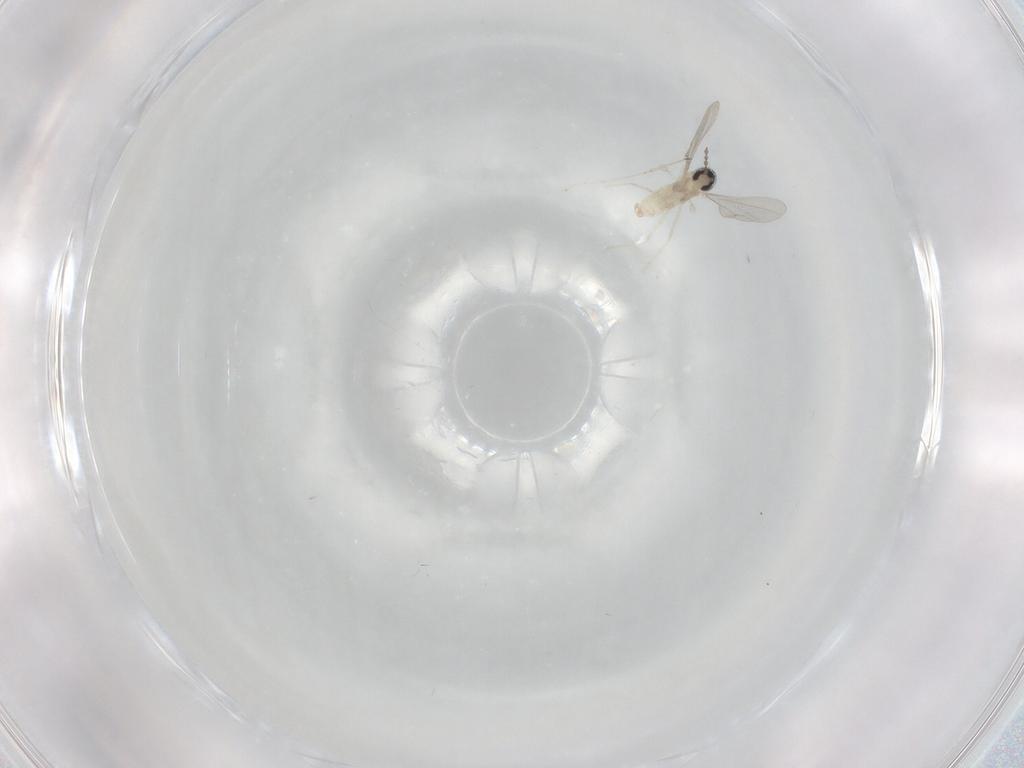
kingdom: Animalia
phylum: Arthropoda
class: Insecta
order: Diptera
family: Cecidomyiidae
